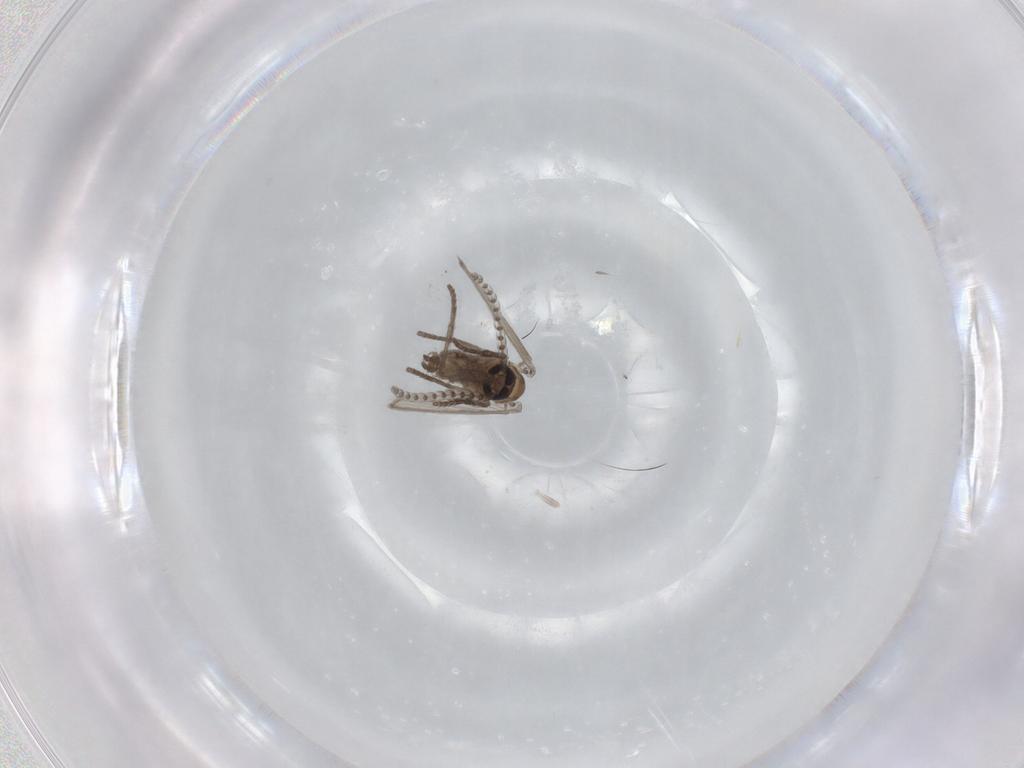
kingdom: Animalia
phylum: Arthropoda
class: Insecta
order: Diptera
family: Psychodidae
